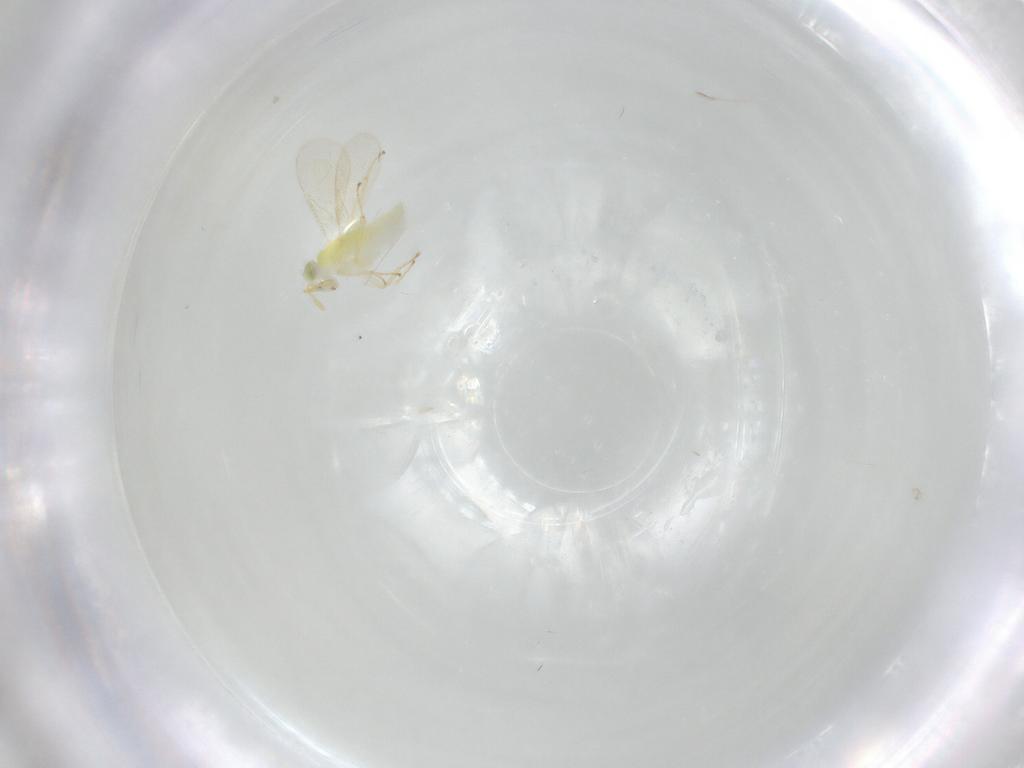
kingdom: Animalia
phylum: Arthropoda
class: Insecta
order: Hymenoptera
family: Aphelinidae
